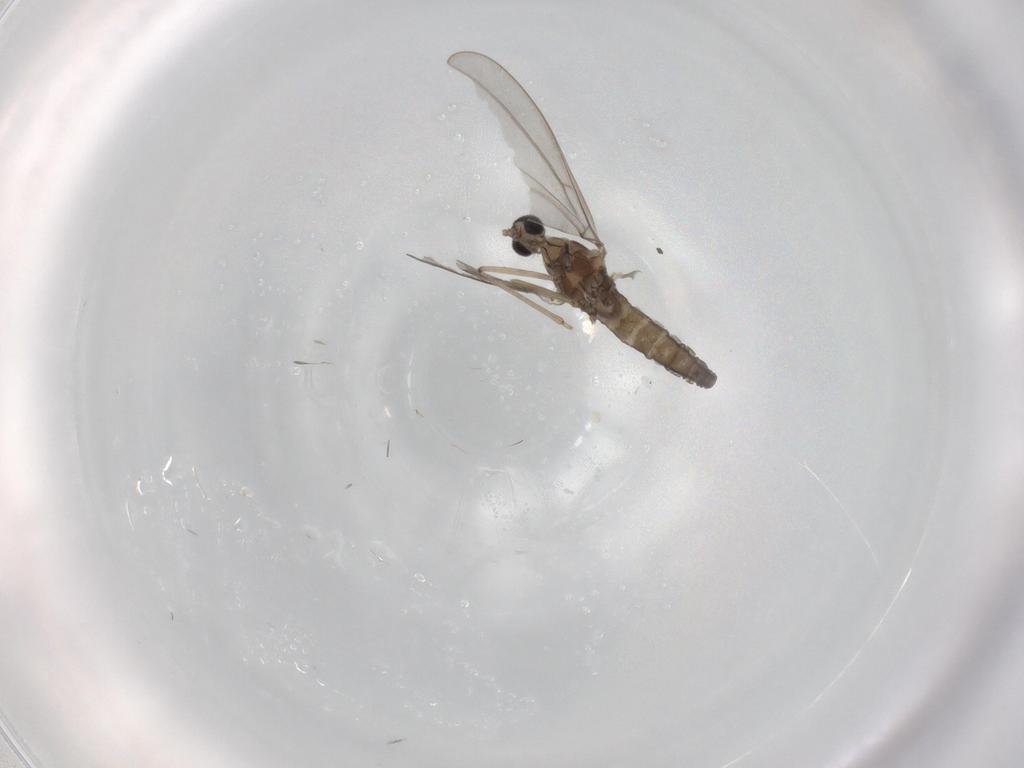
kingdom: Animalia
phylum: Arthropoda
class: Insecta
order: Diptera
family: Cecidomyiidae
